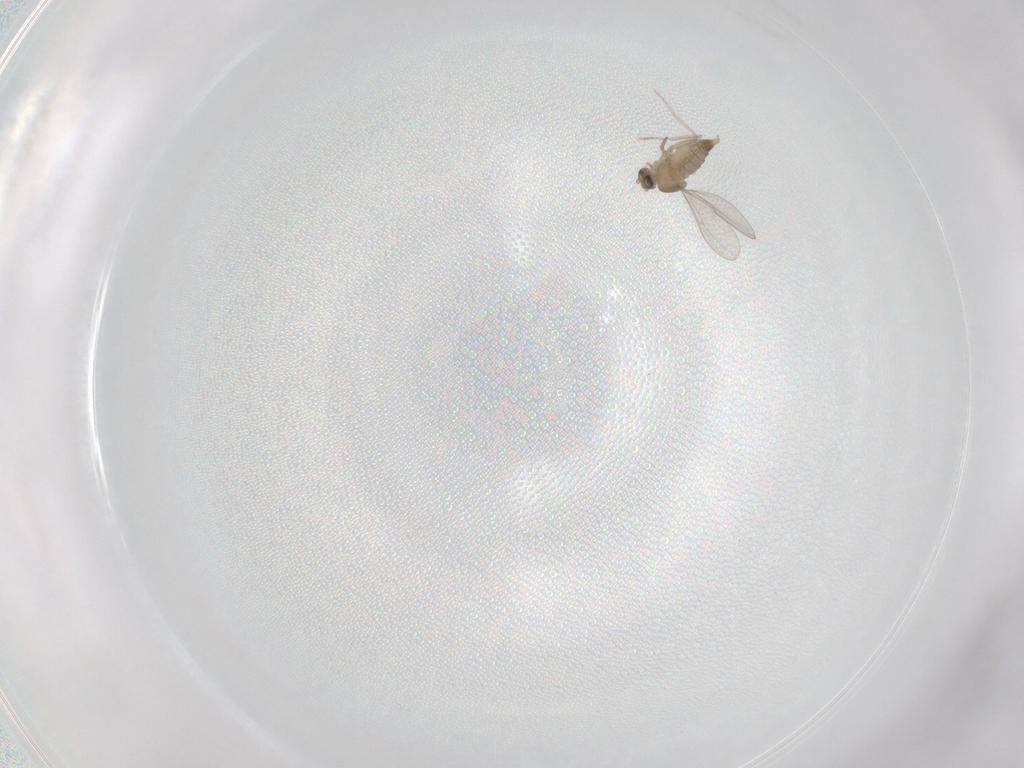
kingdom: Animalia
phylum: Arthropoda
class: Insecta
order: Diptera
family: Cecidomyiidae
